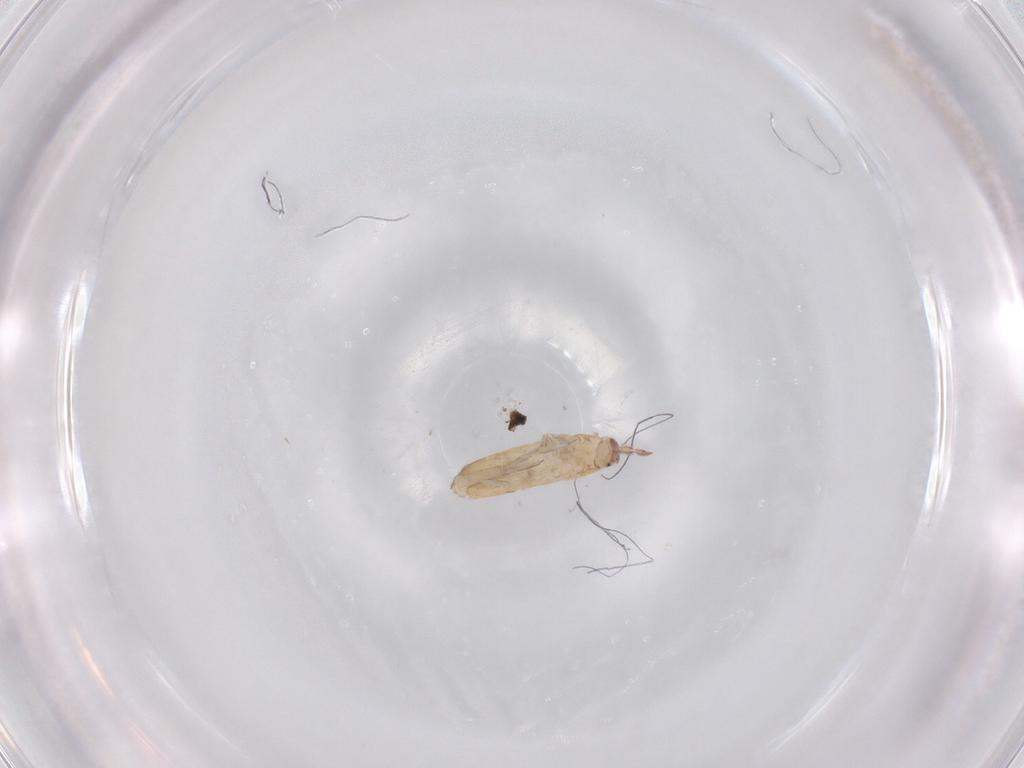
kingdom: Animalia
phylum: Arthropoda
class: Collembola
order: Entomobryomorpha
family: Entomobryidae
